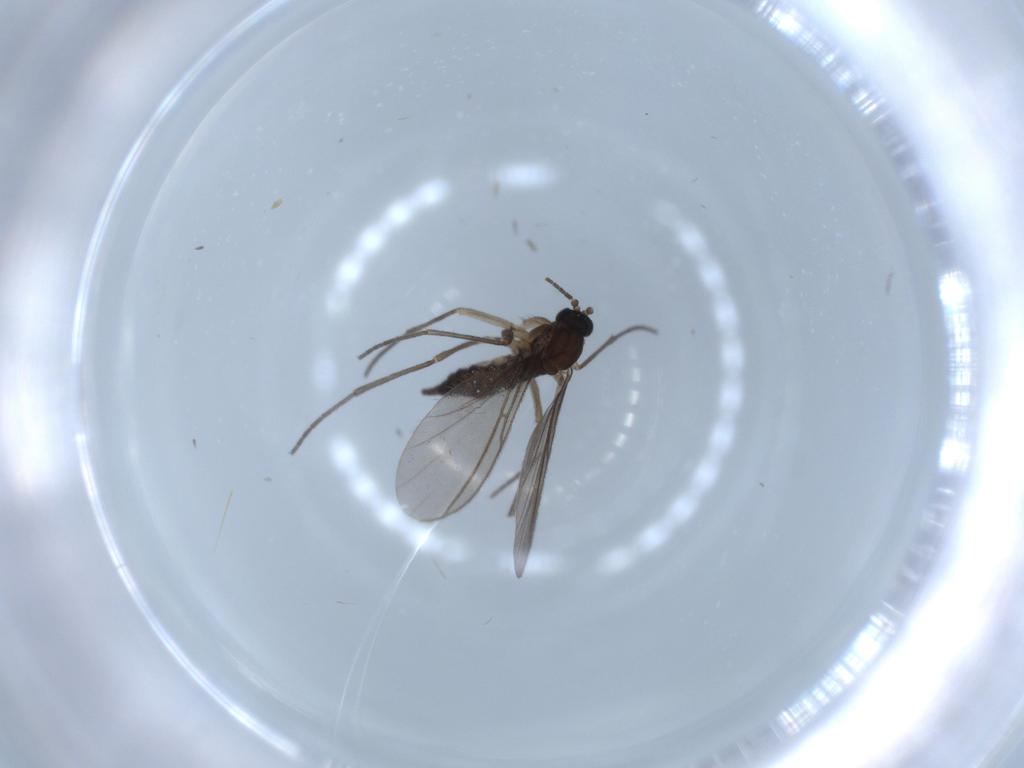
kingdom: Animalia
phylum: Arthropoda
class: Insecta
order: Diptera
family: Sciaridae
